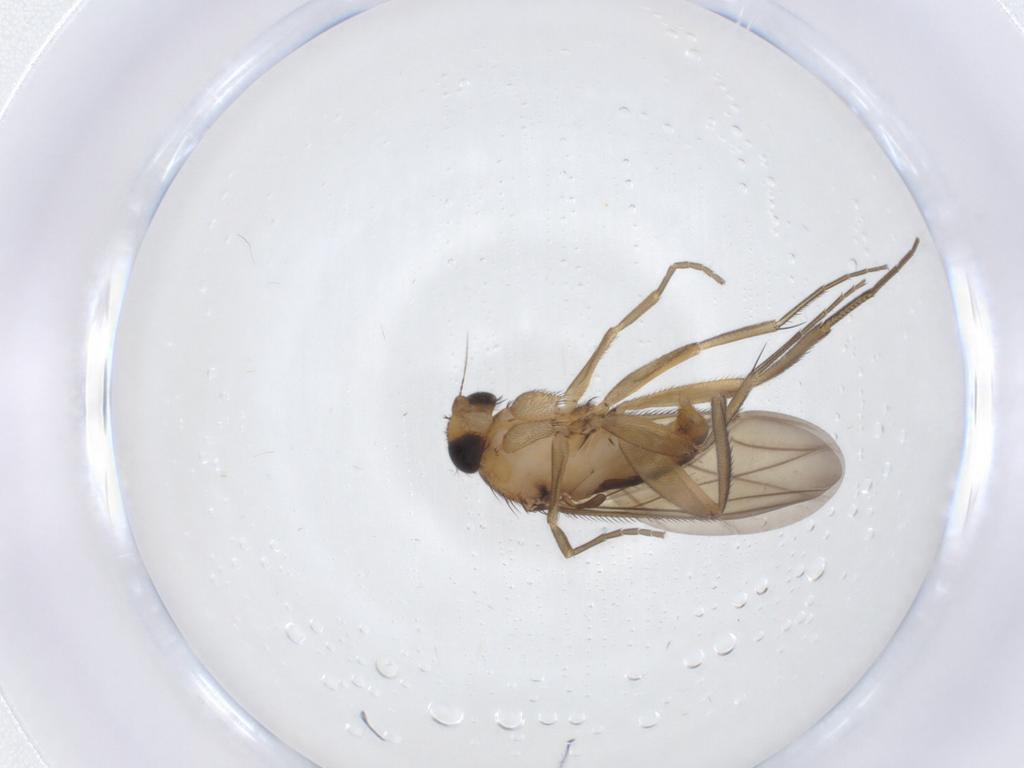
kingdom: Animalia
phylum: Arthropoda
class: Insecta
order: Diptera
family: Phoridae
